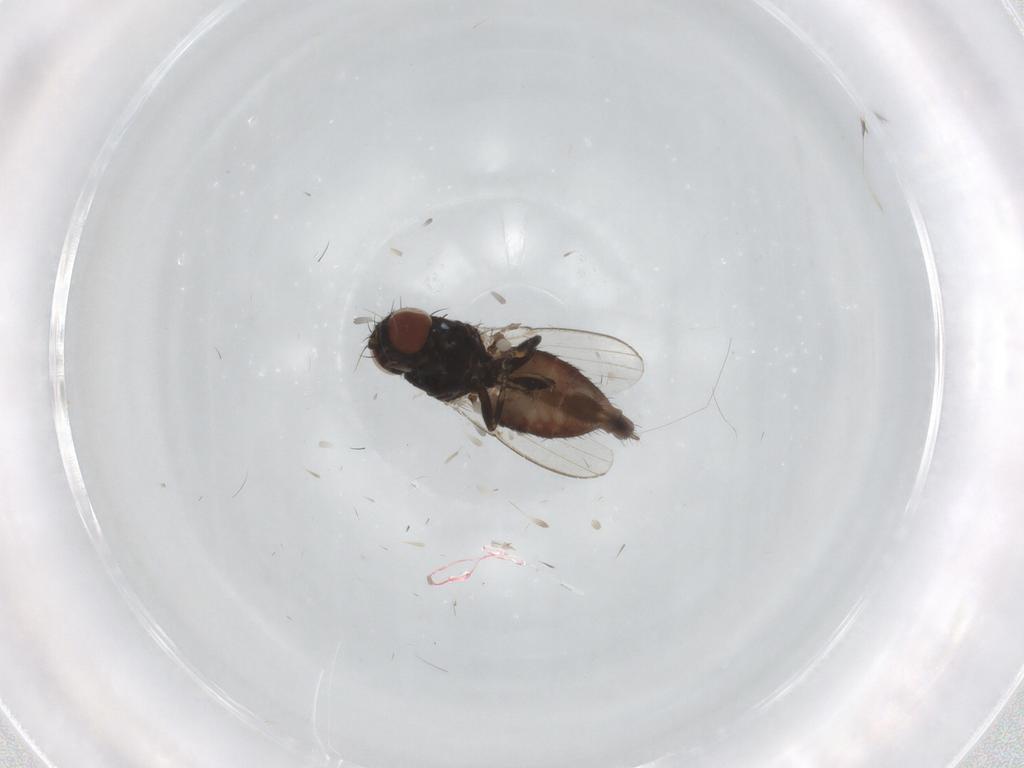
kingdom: Animalia
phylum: Arthropoda
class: Insecta
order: Diptera
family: Milichiidae
